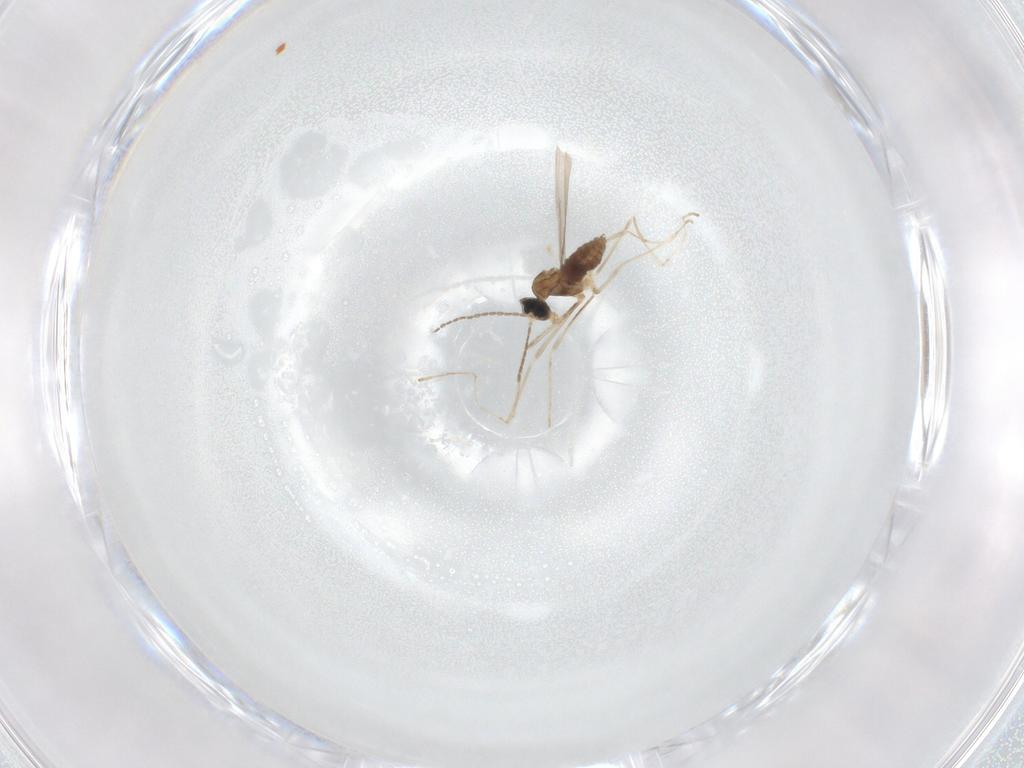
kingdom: Animalia
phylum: Arthropoda
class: Insecta
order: Diptera
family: Cecidomyiidae
